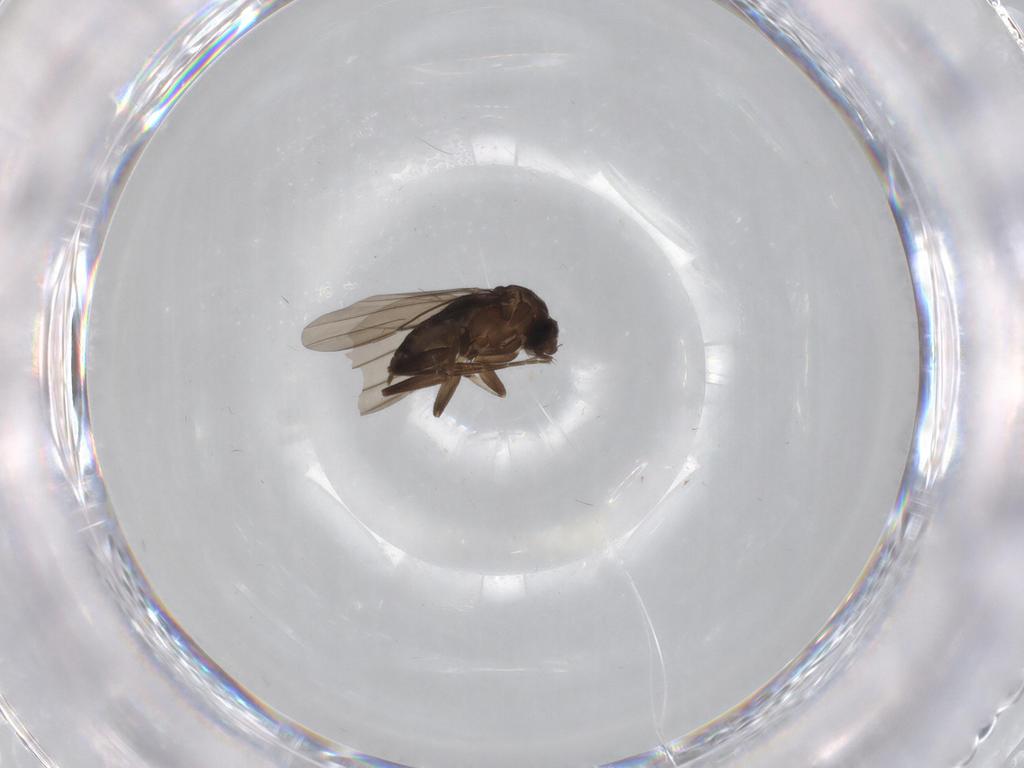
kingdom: Animalia
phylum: Arthropoda
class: Insecta
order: Diptera
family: Phoridae
